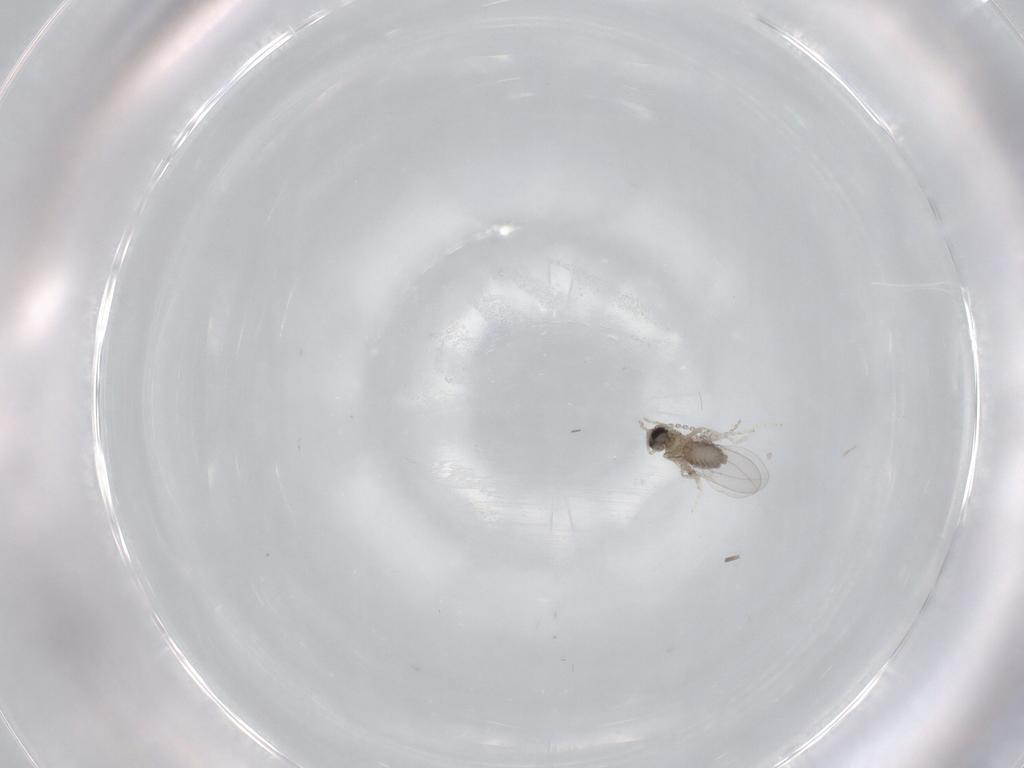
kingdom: Animalia
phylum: Arthropoda
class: Insecta
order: Diptera
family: Cecidomyiidae
